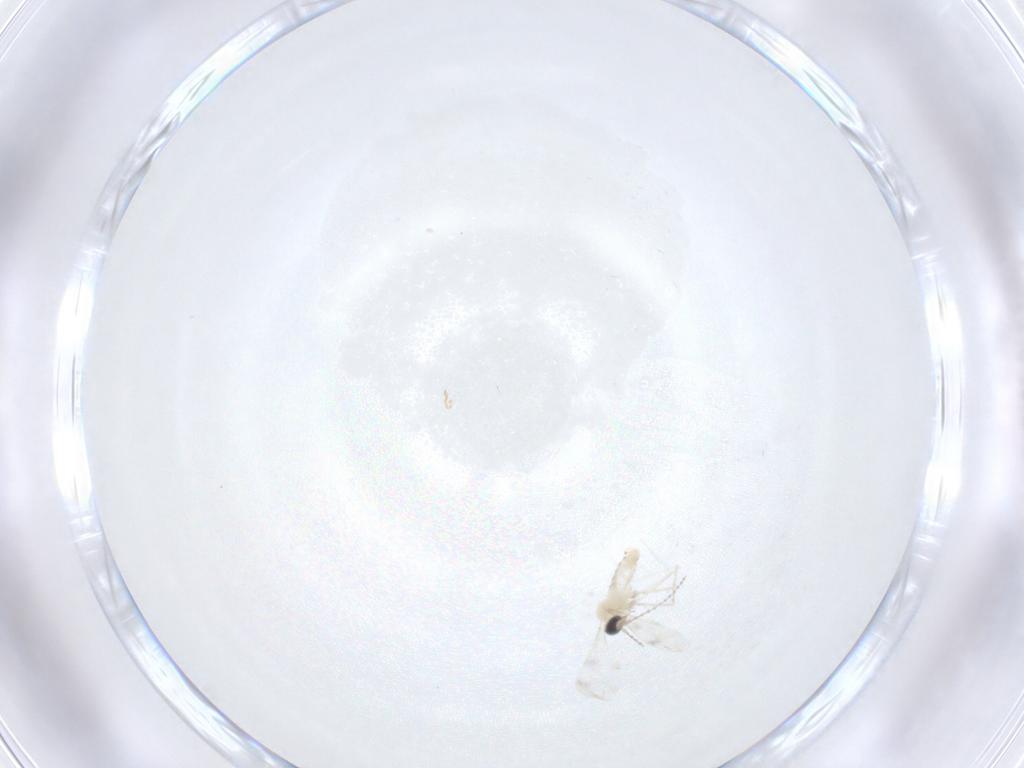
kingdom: Animalia
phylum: Arthropoda
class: Insecta
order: Diptera
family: Cecidomyiidae
